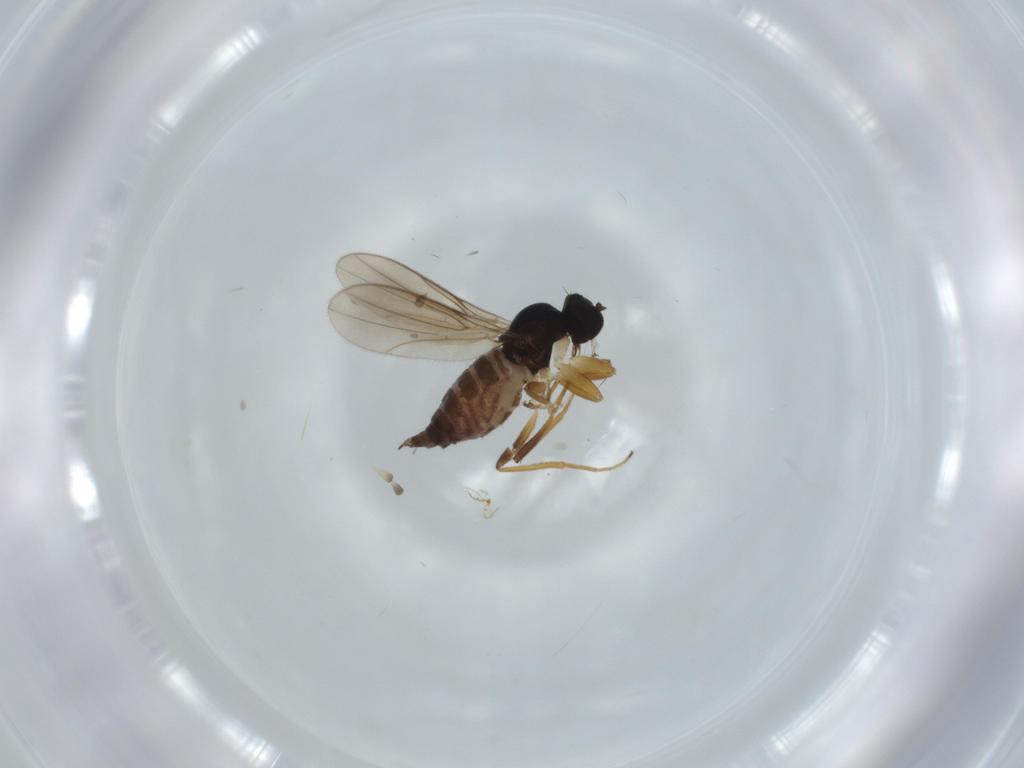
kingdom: Animalia
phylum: Arthropoda
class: Insecta
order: Diptera
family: Hybotidae
